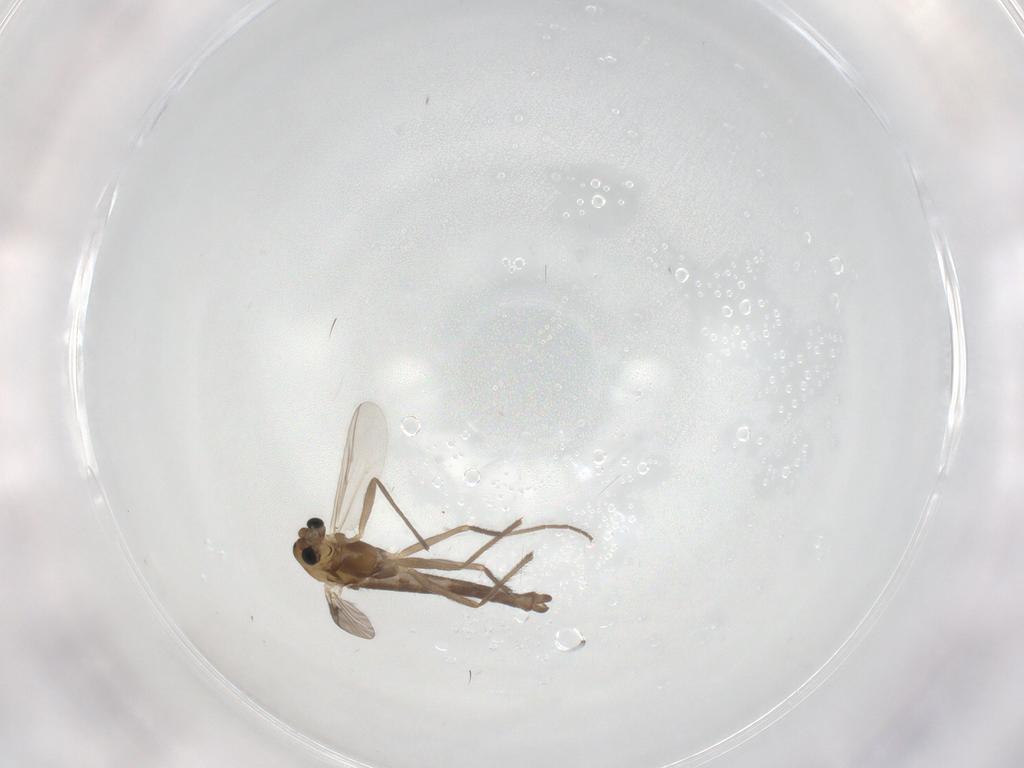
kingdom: Animalia
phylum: Arthropoda
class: Insecta
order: Diptera
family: Chironomidae
